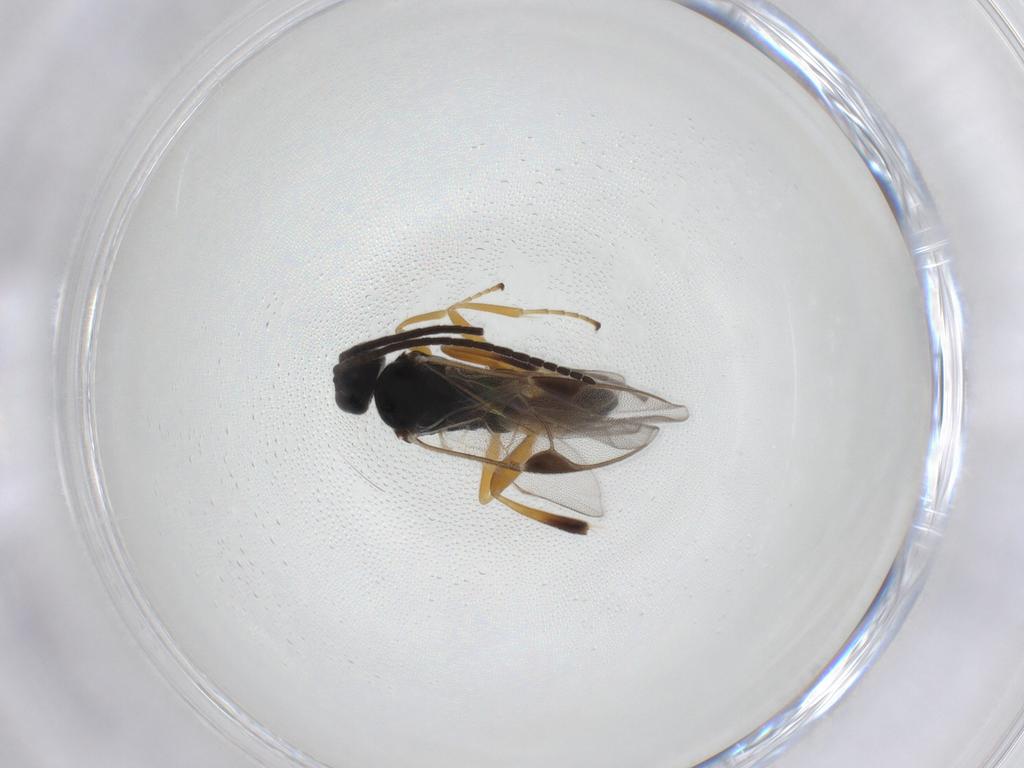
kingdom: Animalia
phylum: Arthropoda
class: Insecta
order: Hymenoptera
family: Braconidae
